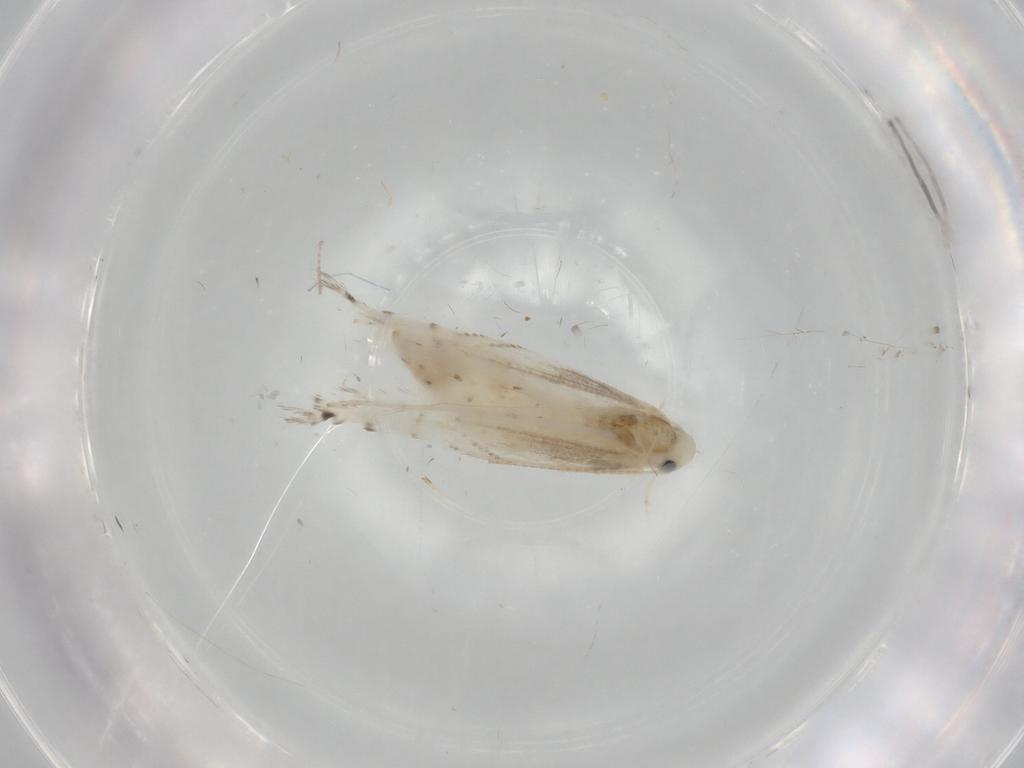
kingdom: Animalia
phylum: Arthropoda
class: Insecta
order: Lepidoptera
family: Gracillariidae
